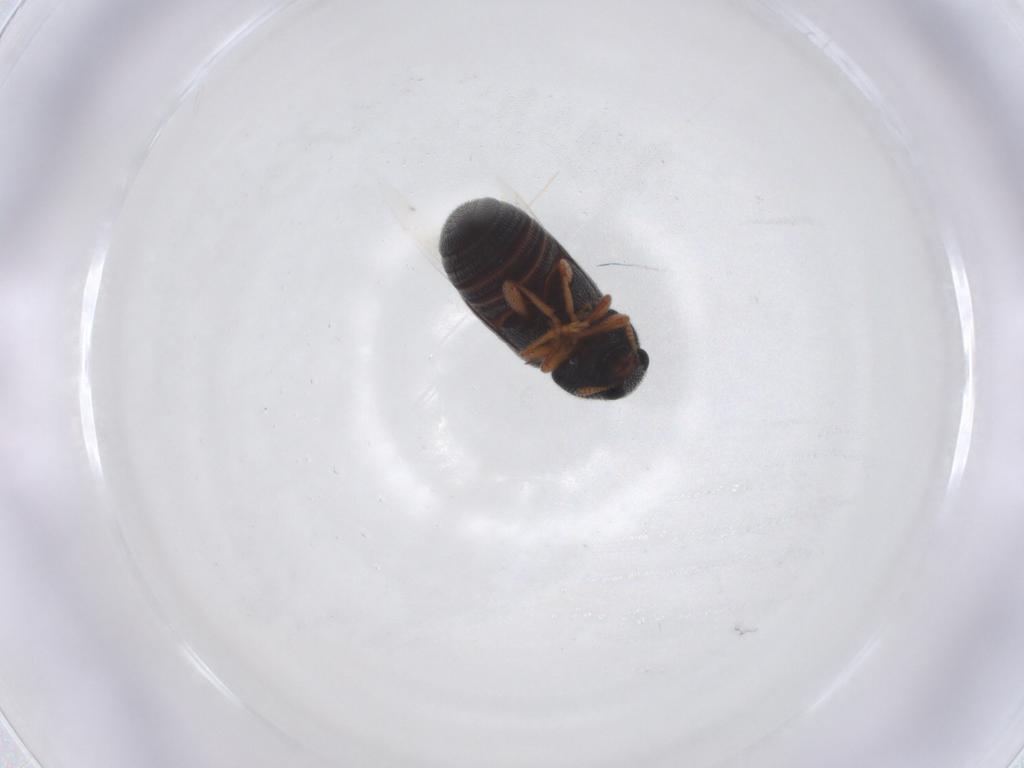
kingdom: Animalia
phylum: Arthropoda
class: Insecta
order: Coleoptera
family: Anthribidae
